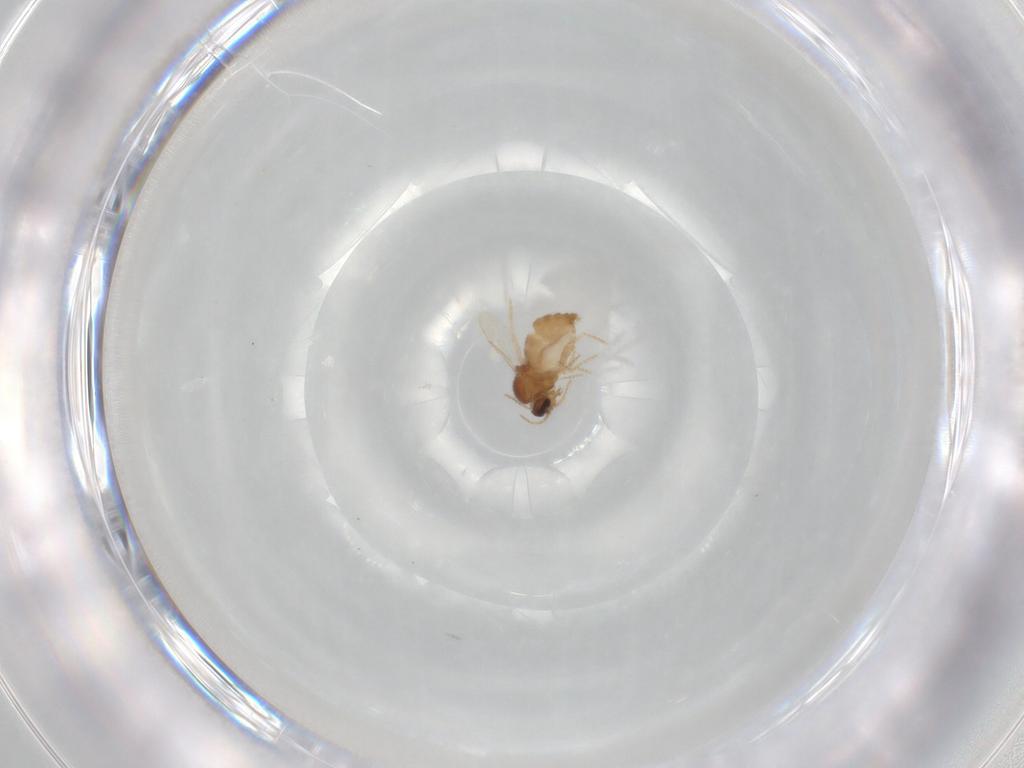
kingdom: Animalia
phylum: Arthropoda
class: Insecta
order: Diptera
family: Ceratopogonidae
